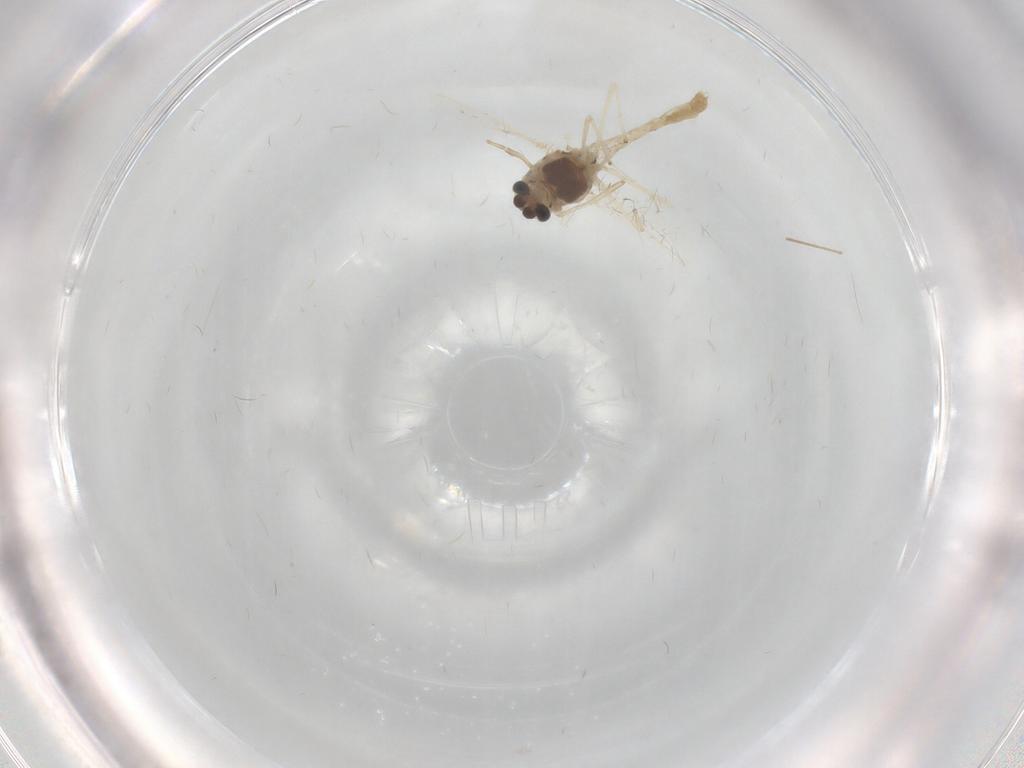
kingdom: Animalia
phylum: Arthropoda
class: Insecta
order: Diptera
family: Chironomidae
